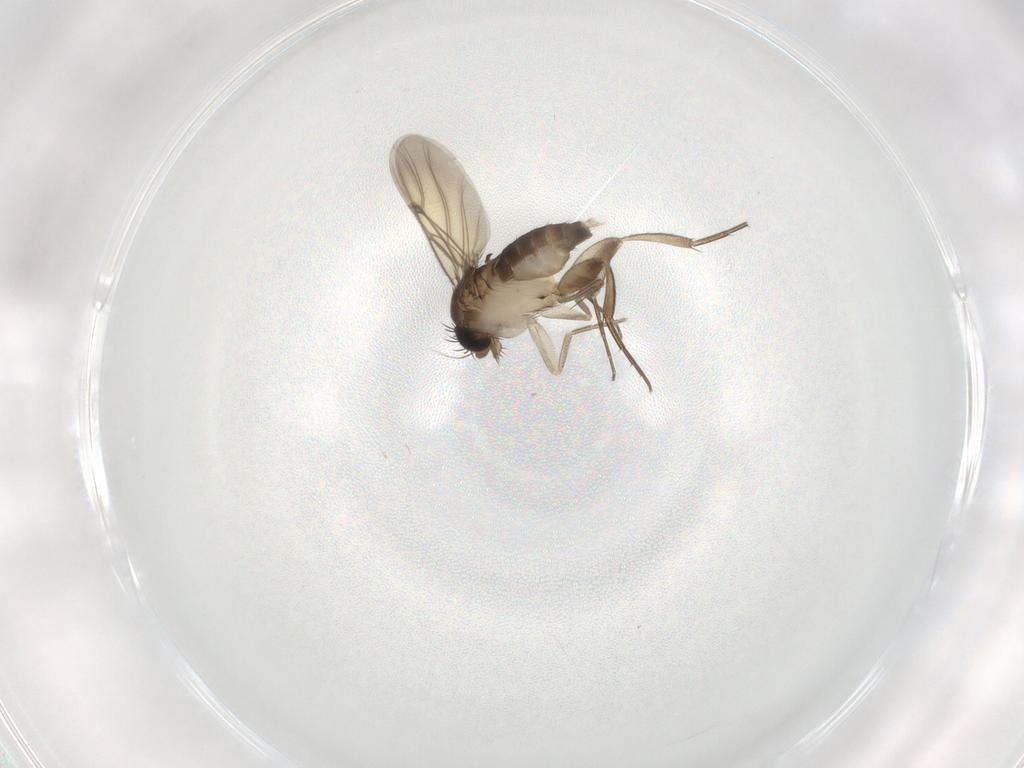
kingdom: Animalia
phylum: Arthropoda
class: Insecta
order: Diptera
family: Phoridae
